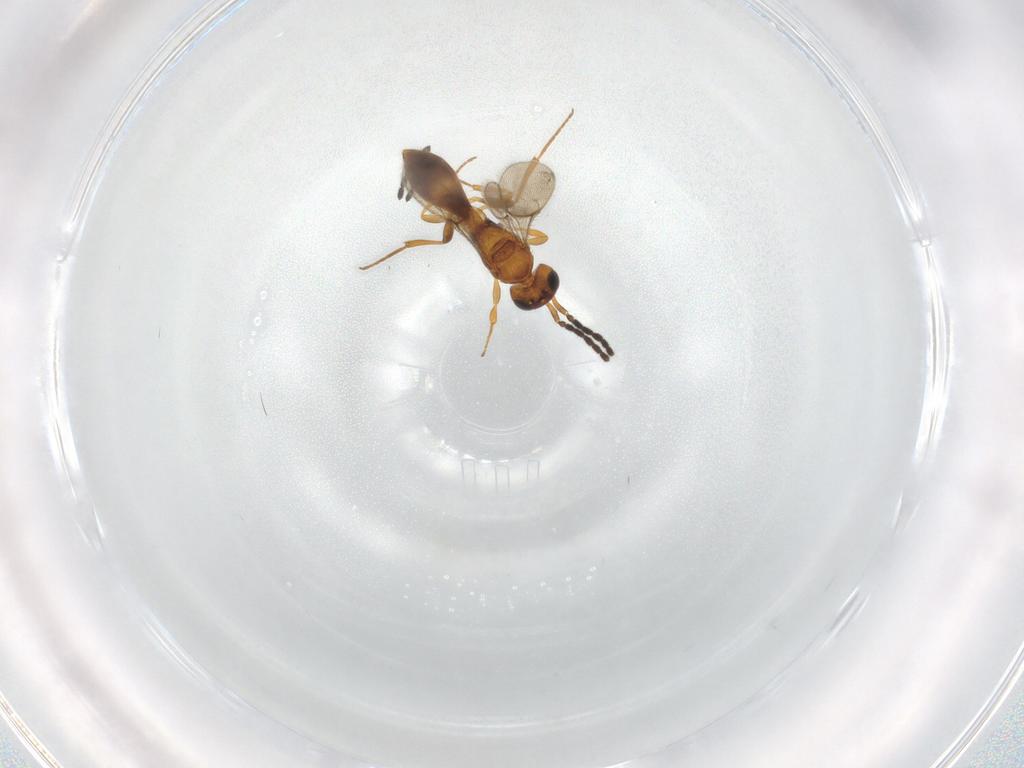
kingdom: Animalia
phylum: Arthropoda
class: Insecta
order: Hymenoptera
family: Scelionidae
